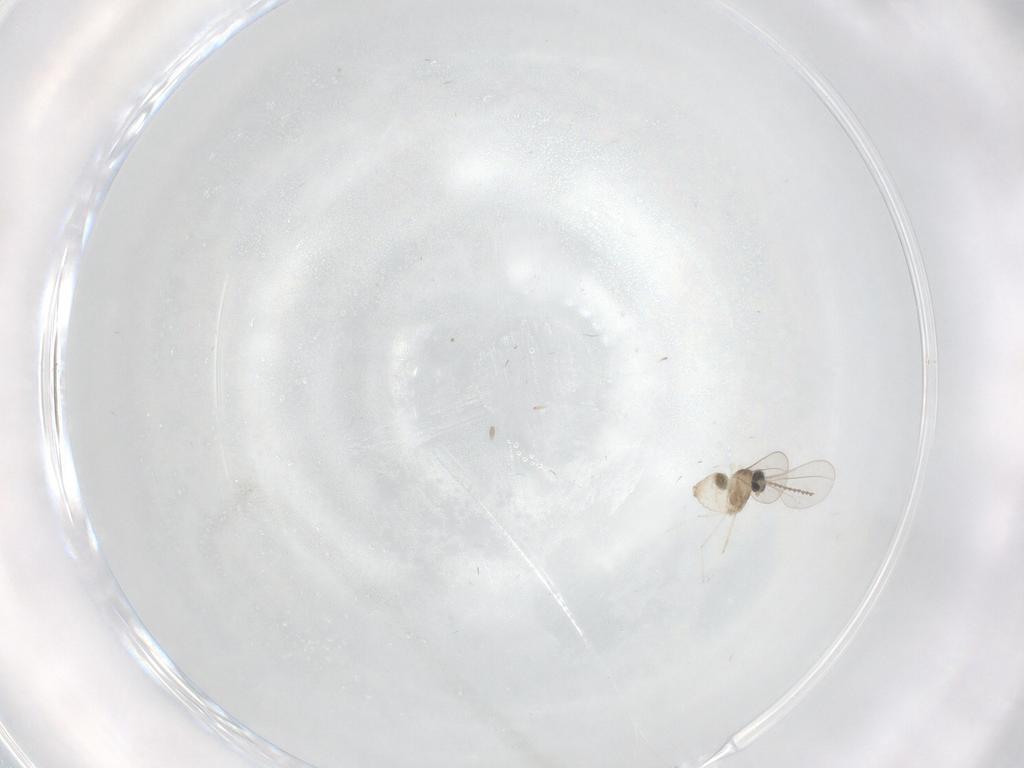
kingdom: Animalia
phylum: Arthropoda
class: Insecta
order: Diptera
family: Cecidomyiidae
